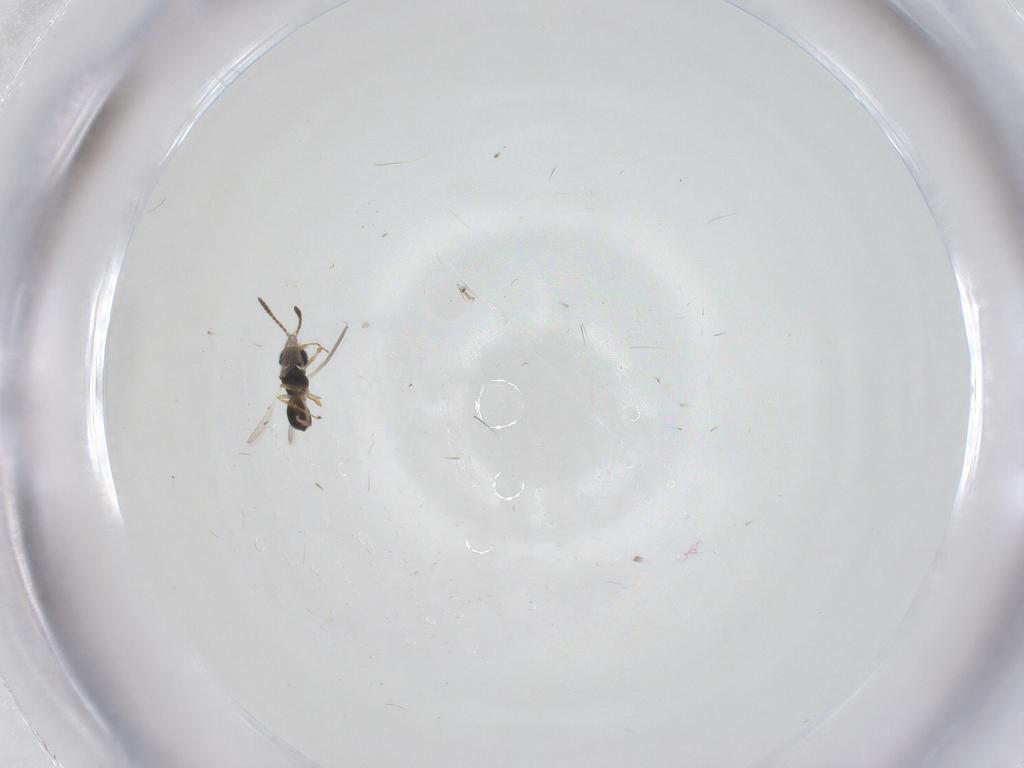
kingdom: Animalia
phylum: Arthropoda
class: Insecta
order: Hymenoptera
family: Scelionidae
